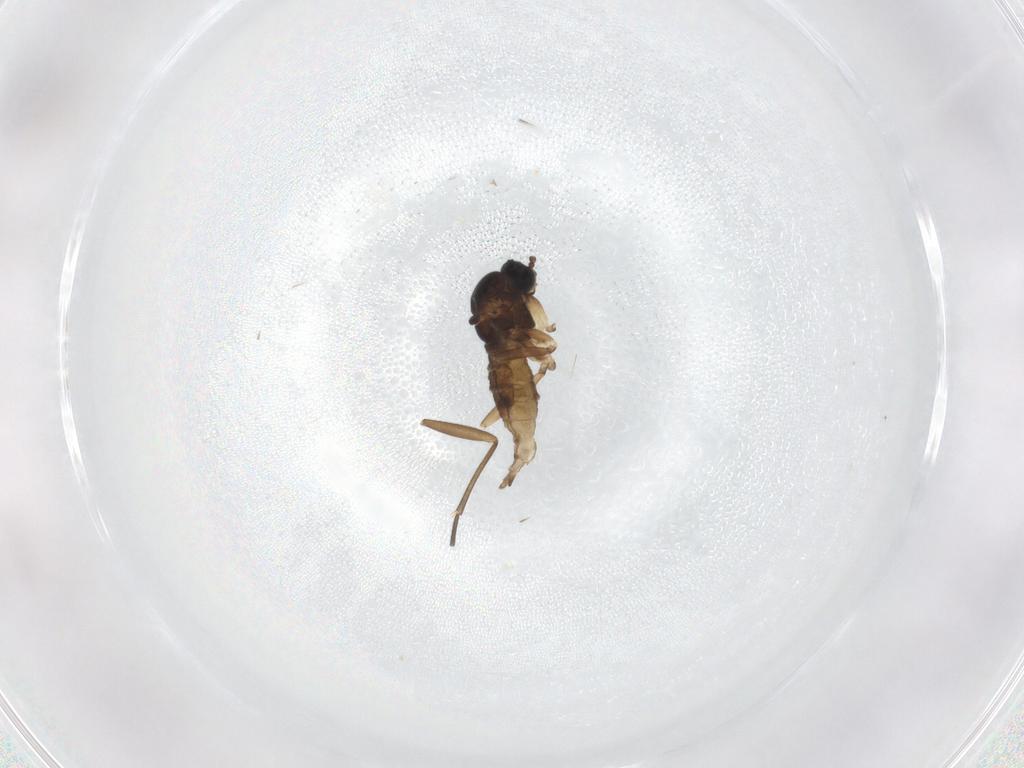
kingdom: Animalia
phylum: Arthropoda
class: Insecta
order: Diptera
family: Sciaridae
